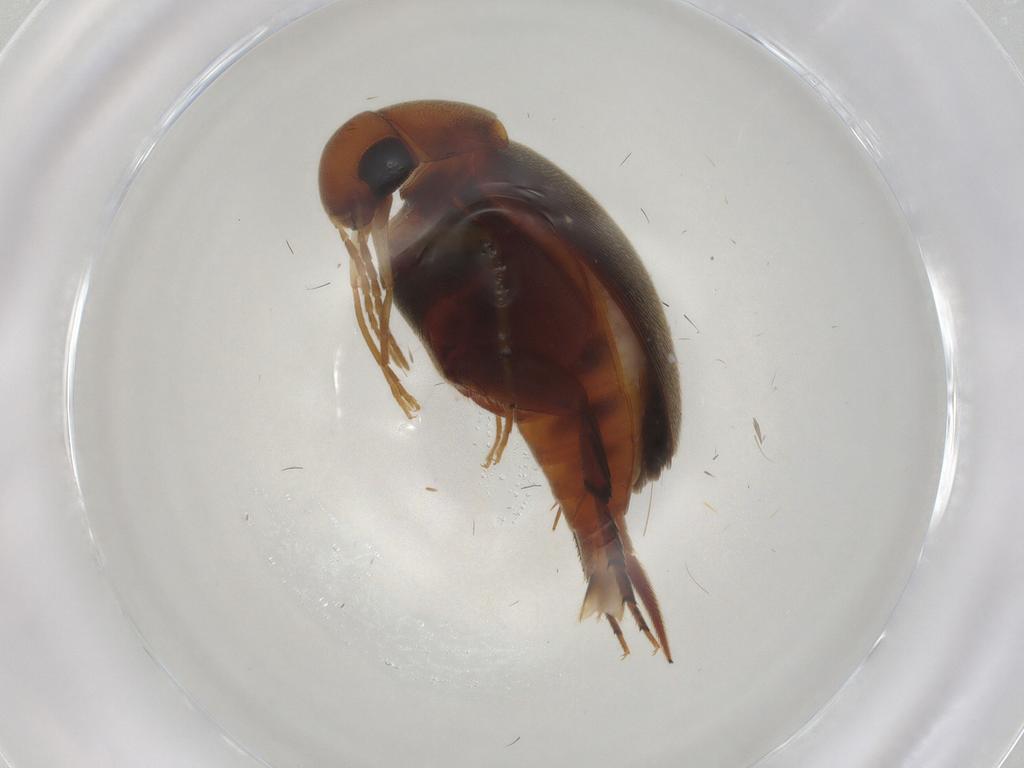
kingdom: Animalia
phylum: Arthropoda
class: Insecta
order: Coleoptera
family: Mordellidae
